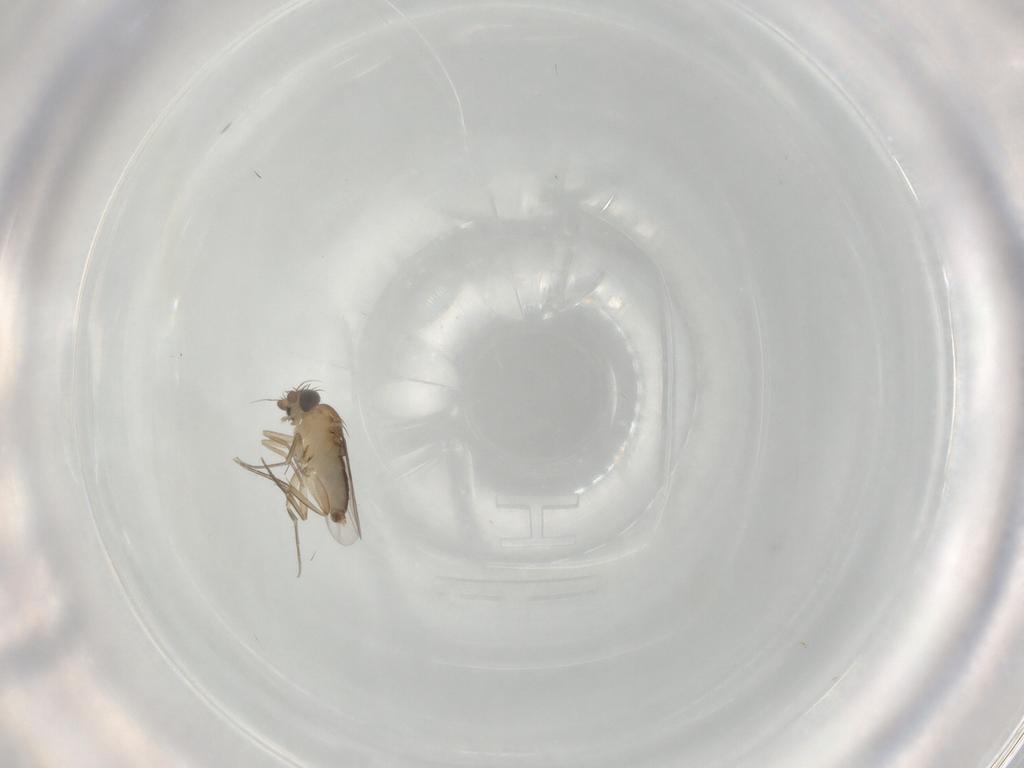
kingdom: Animalia
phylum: Arthropoda
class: Insecta
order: Diptera
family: Phoridae
